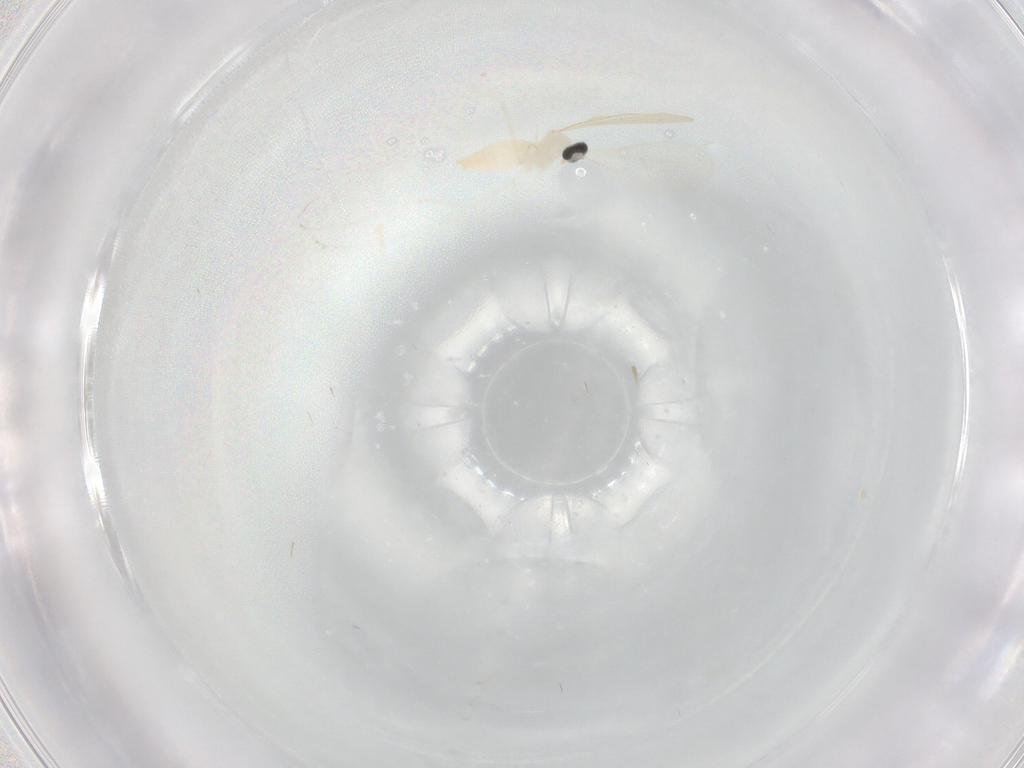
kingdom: Animalia
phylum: Arthropoda
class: Insecta
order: Diptera
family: Sphaeroceridae
